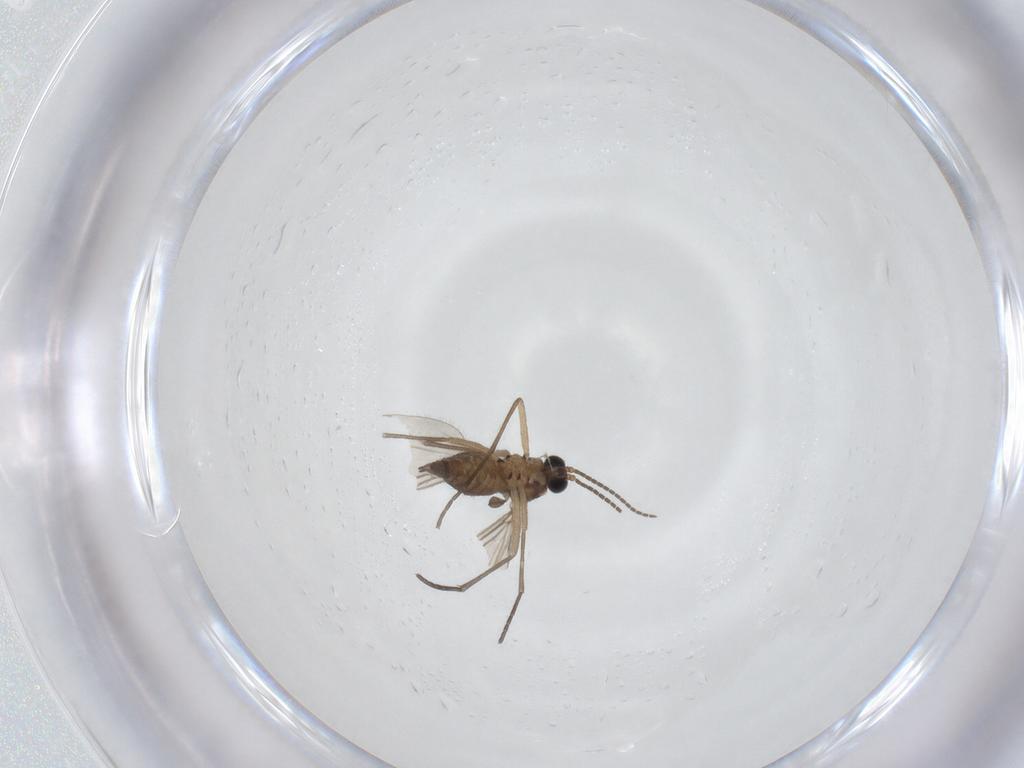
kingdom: Animalia
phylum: Arthropoda
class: Insecta
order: Diptera
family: Sciaridae
